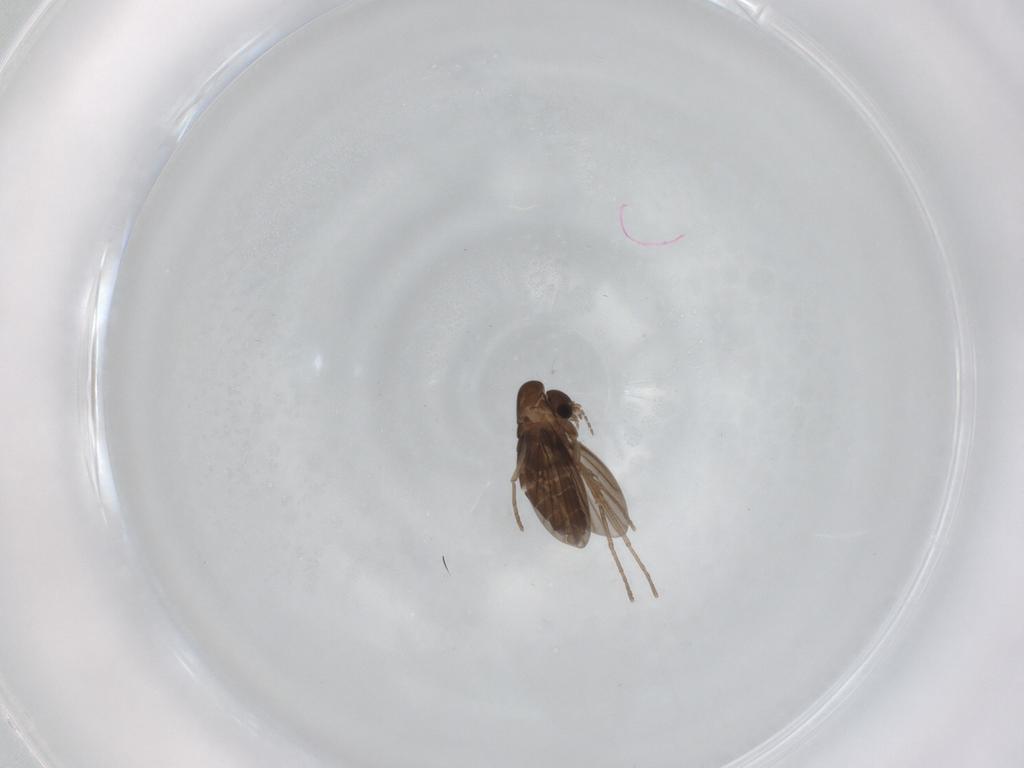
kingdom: Animalia
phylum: Arthropoda
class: Insecta
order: Diptera
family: Chironomidae
